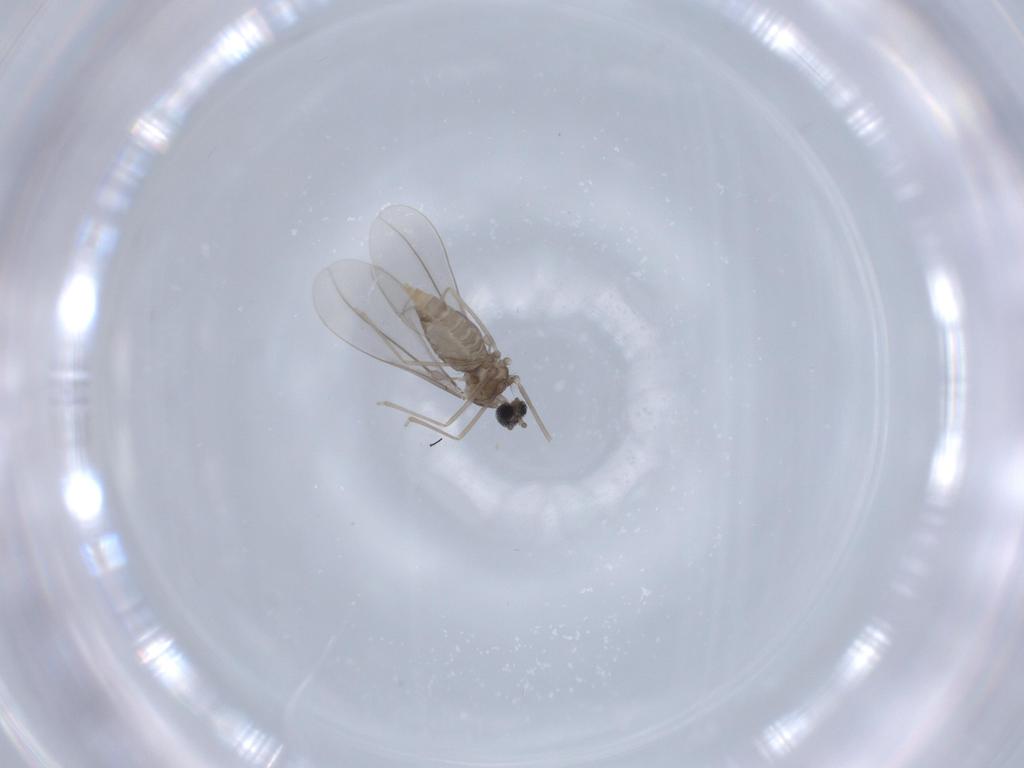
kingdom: Animalia
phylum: Arthropoda
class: Insecta
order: Diptera
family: Cecidomyiidae
